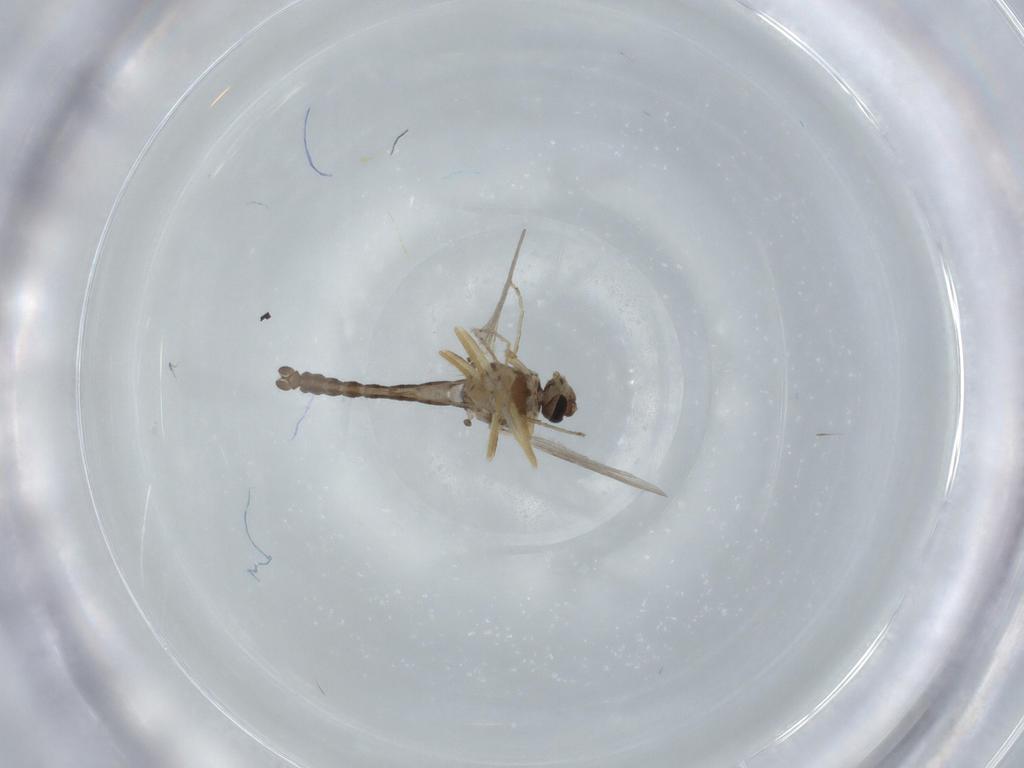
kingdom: Animalia
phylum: Arthropoda
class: Insecta
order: Diptera
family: Ceratopogonidae
